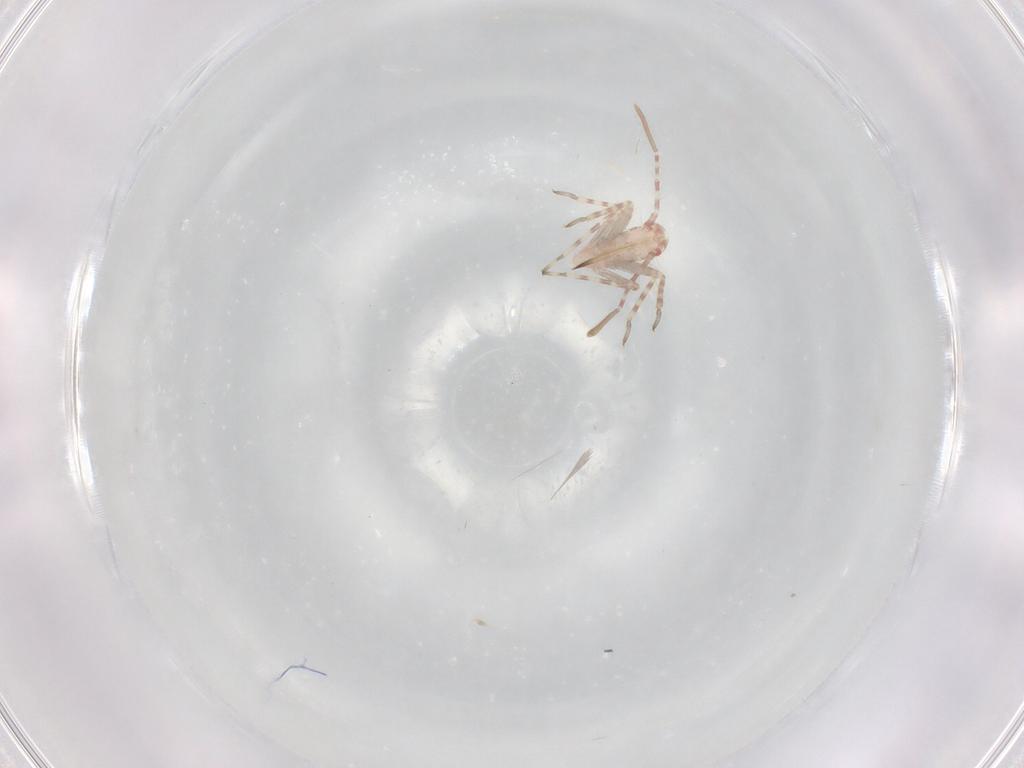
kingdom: Animalia
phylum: Arthropoda
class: Insecta
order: Hemiptera
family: Miridae
